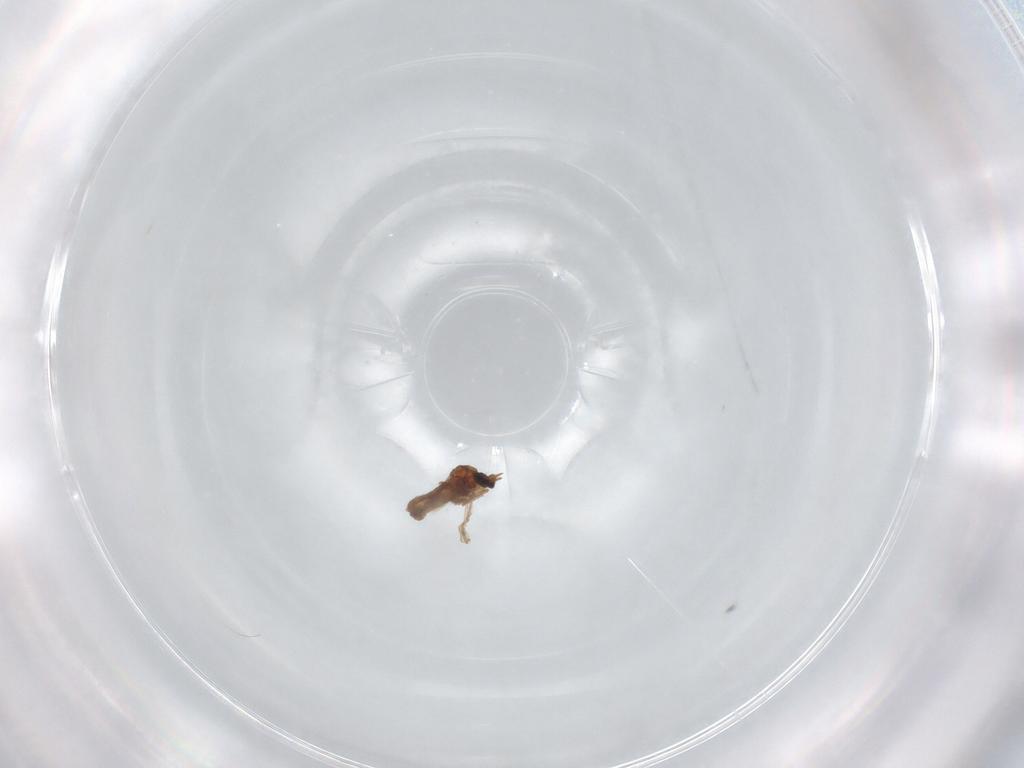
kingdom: Animalia
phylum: Arthropoda
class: Insecta
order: Diptera
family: Ceratopogonidae
